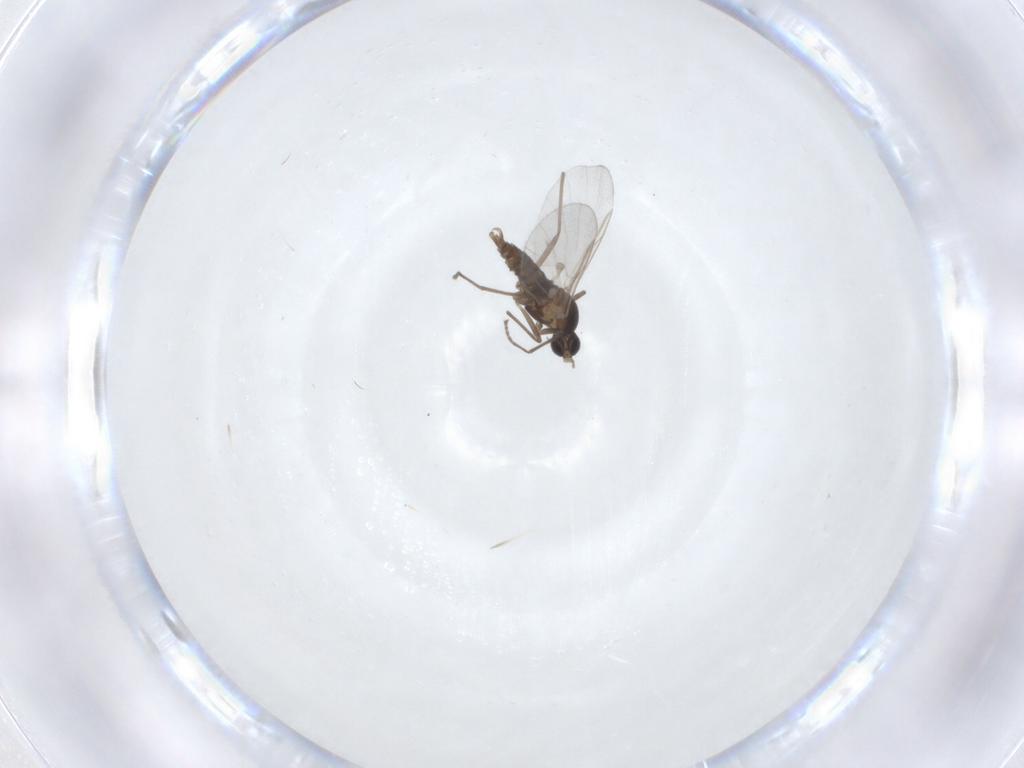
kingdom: Animalia
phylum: Arthropoda
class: Insecta
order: Diptera
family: Cecidomyiidae
